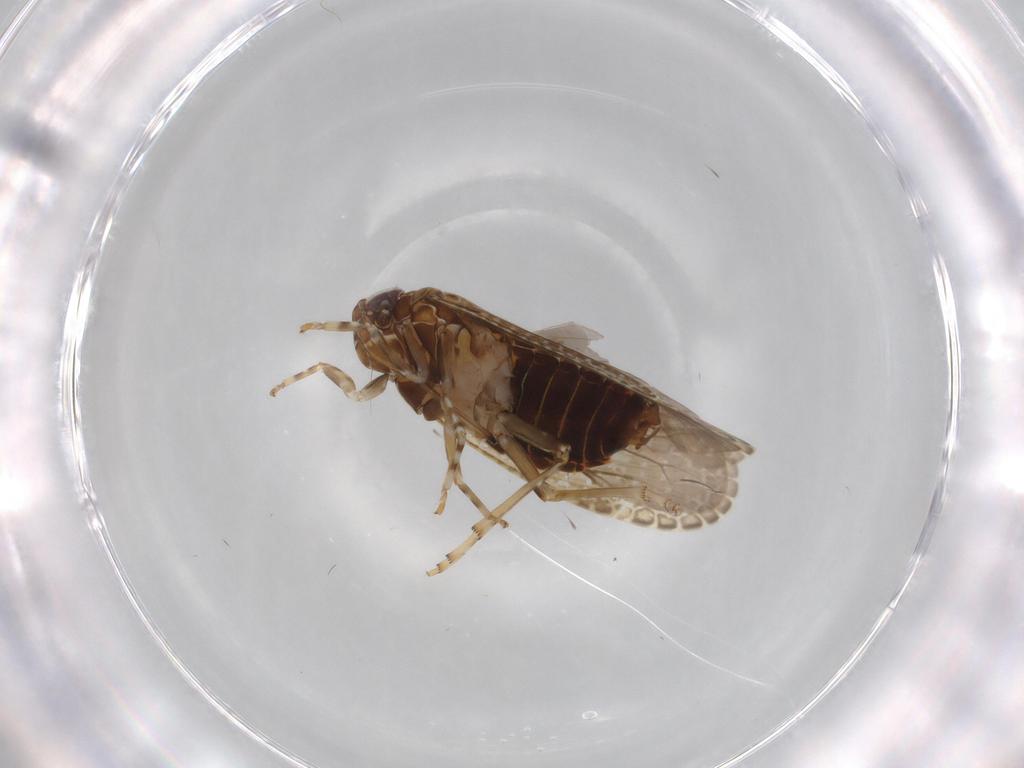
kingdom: Animalia
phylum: Arthropoda
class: Insecta
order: Hemiptera
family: Achilidae
